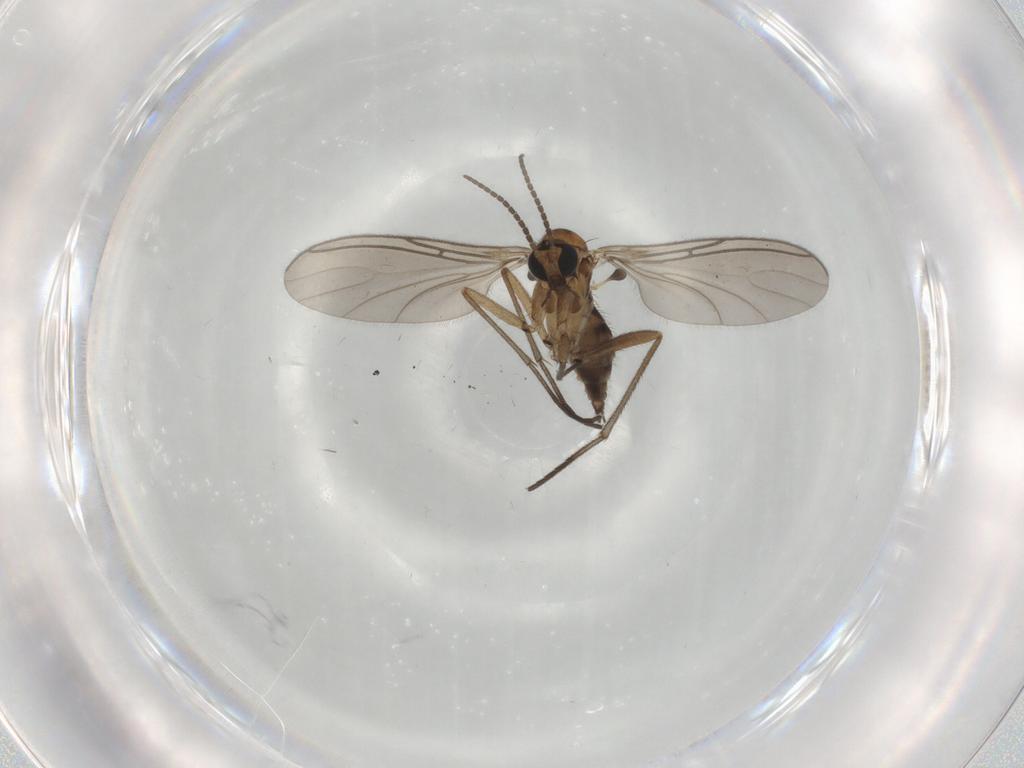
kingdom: Animalia
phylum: Arthropoda
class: Insecta
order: Diptera
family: Sciaridae
